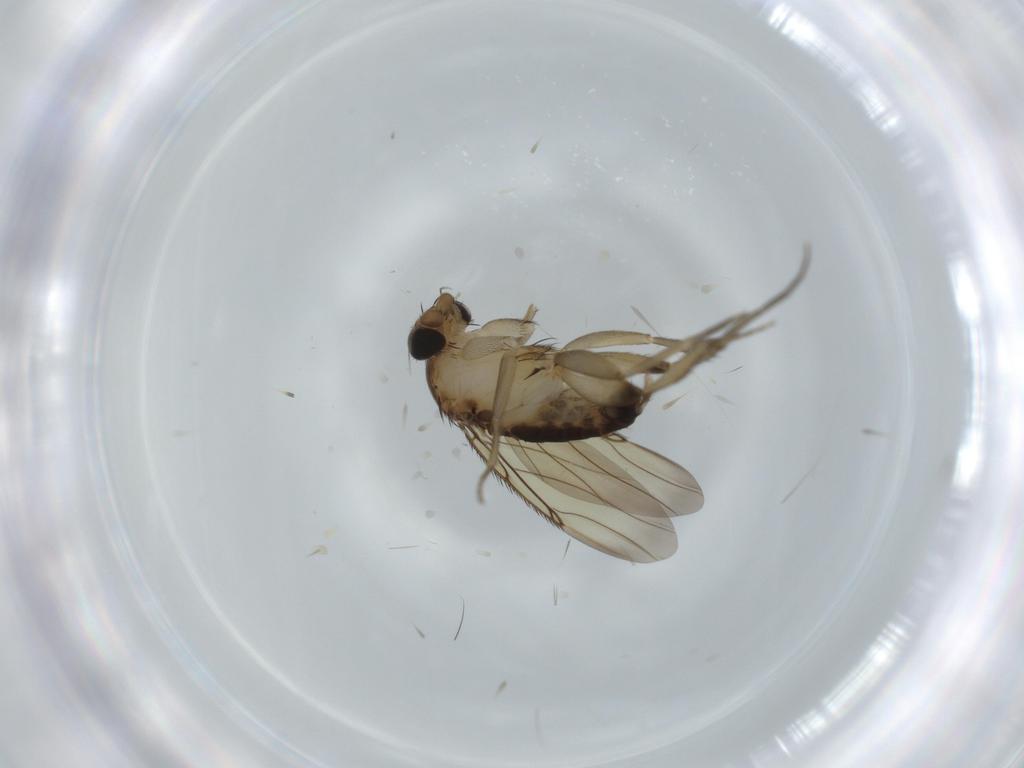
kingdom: Animalia
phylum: Arthropoda
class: Insecta
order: Diptera
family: Phoridae
